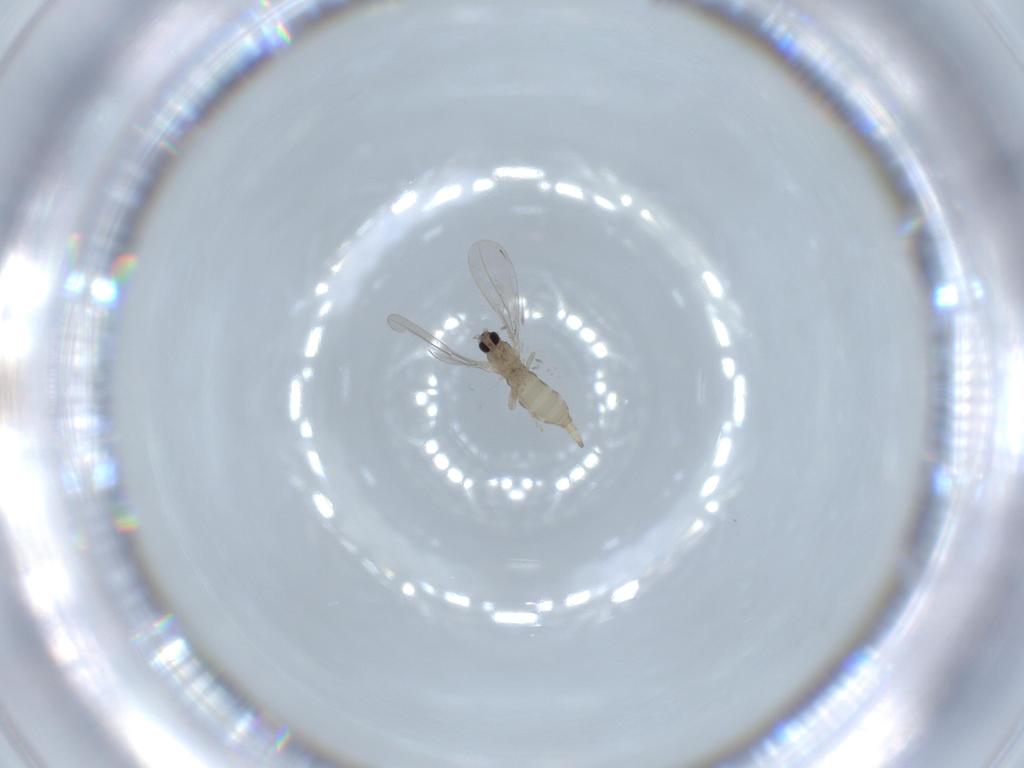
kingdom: Animalia
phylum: Arthropoda
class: Insecta
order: Diptera
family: Cecidomyiidae
